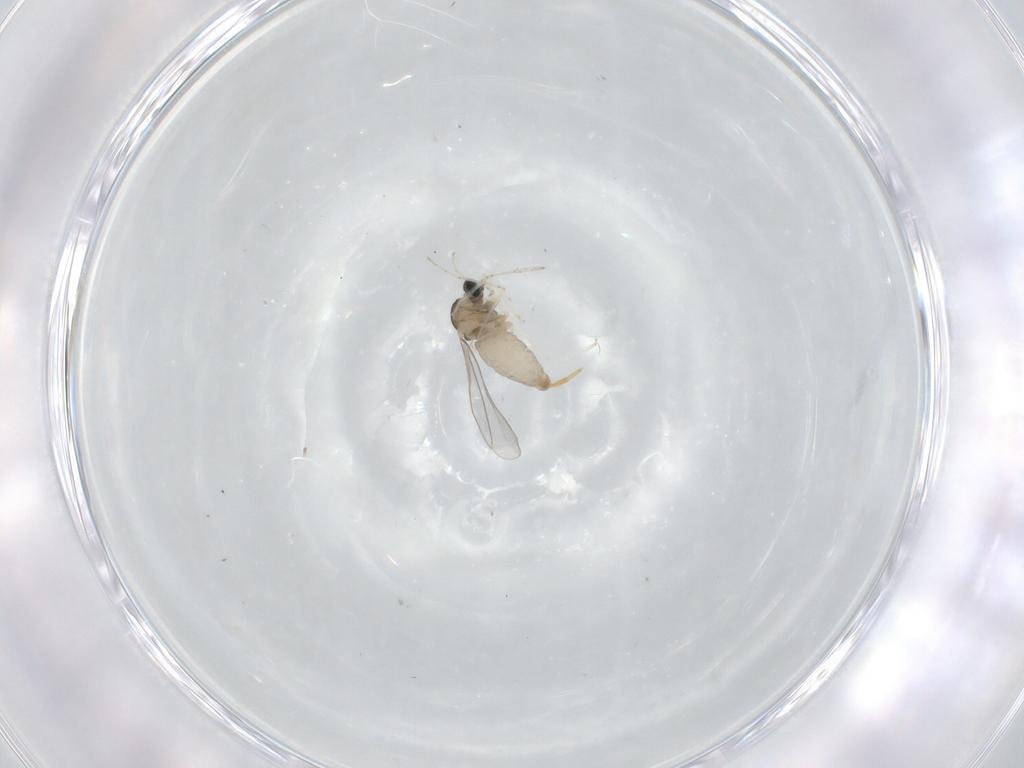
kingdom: Animalia
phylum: Arthropoda
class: Insecta
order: Diptera
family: Cecidomyiidae
